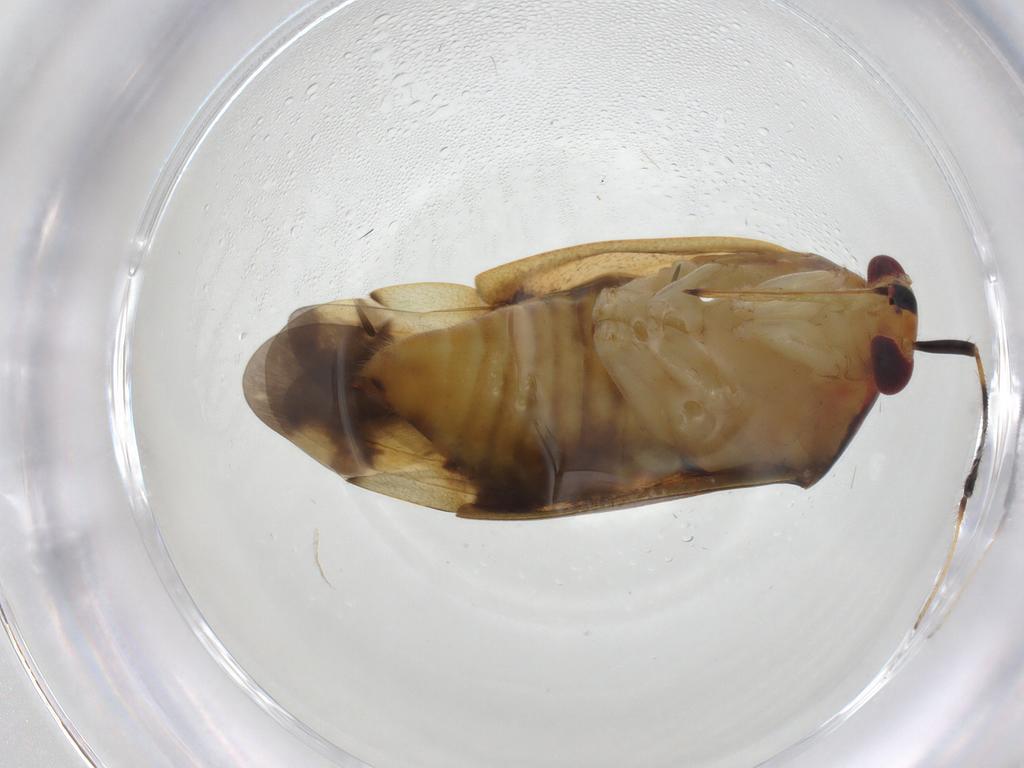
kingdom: Animalia
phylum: Arthropoda
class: Insecta
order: Hemiptera
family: Miridae
